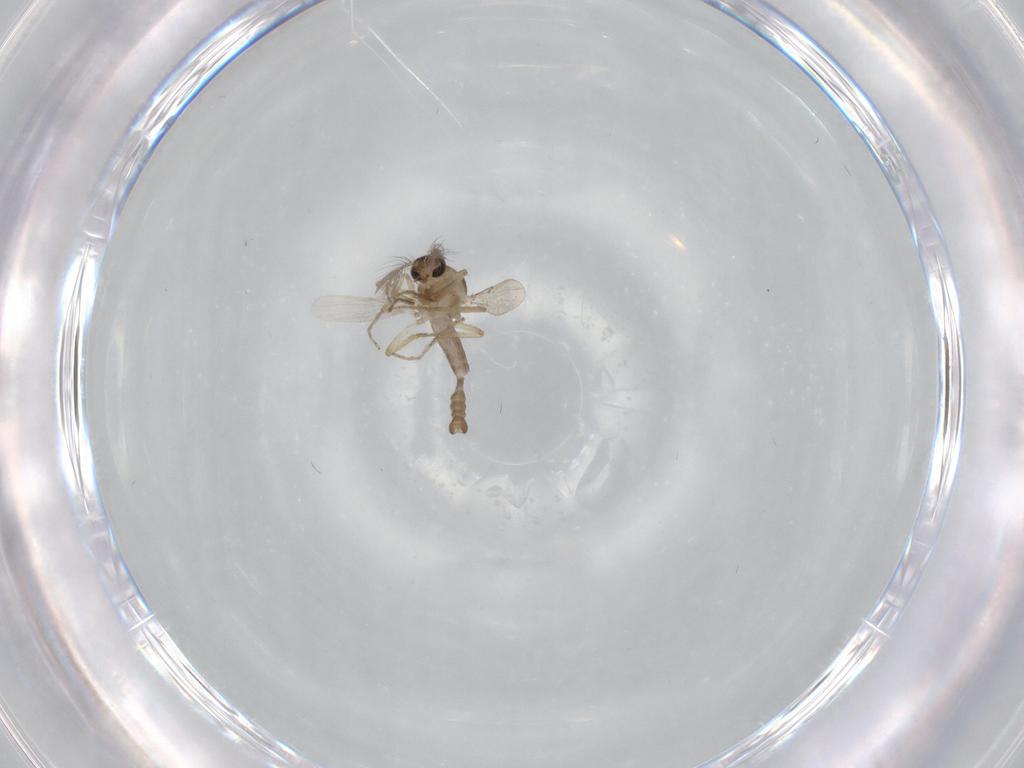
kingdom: Animalia
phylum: Arthropoda
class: Insecta
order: Diptera
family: Ceratopogonidae
